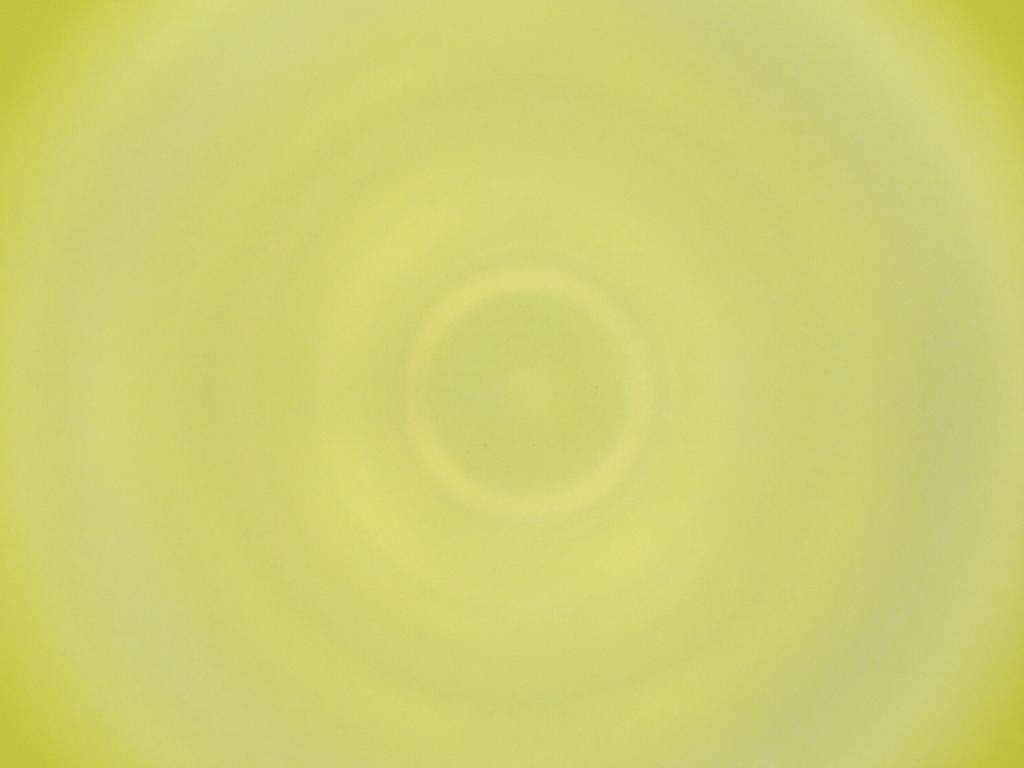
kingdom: Animalia
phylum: Arthropoda
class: Insecta
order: Diptera
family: Cecidomyiidae
